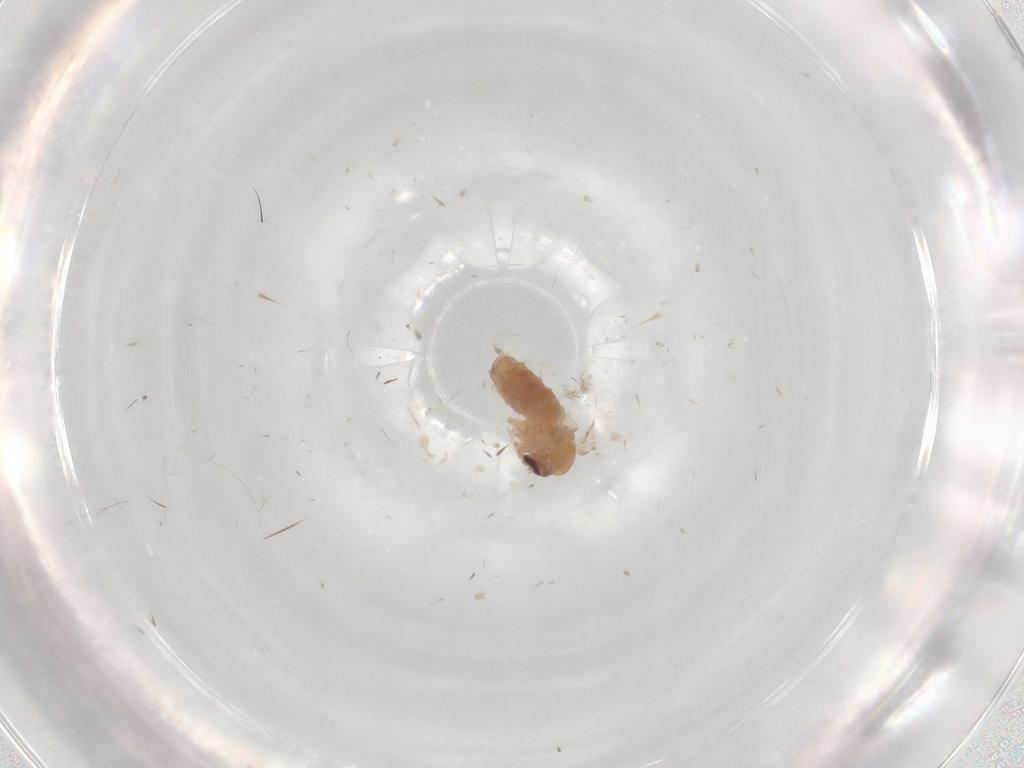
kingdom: Animalia
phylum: Arthropoda
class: Insecta
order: Diptera
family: Psychodidae
